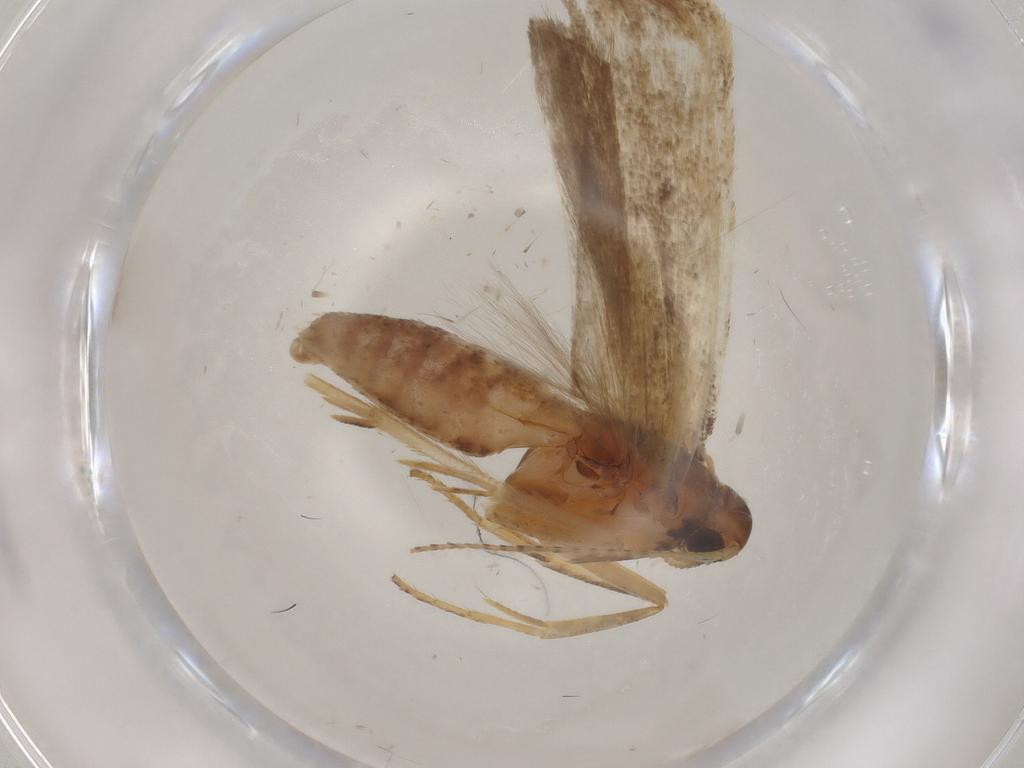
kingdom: Animalia
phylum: Arthropoda
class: Insecta
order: Lepidoptera
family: Gelechiidae
